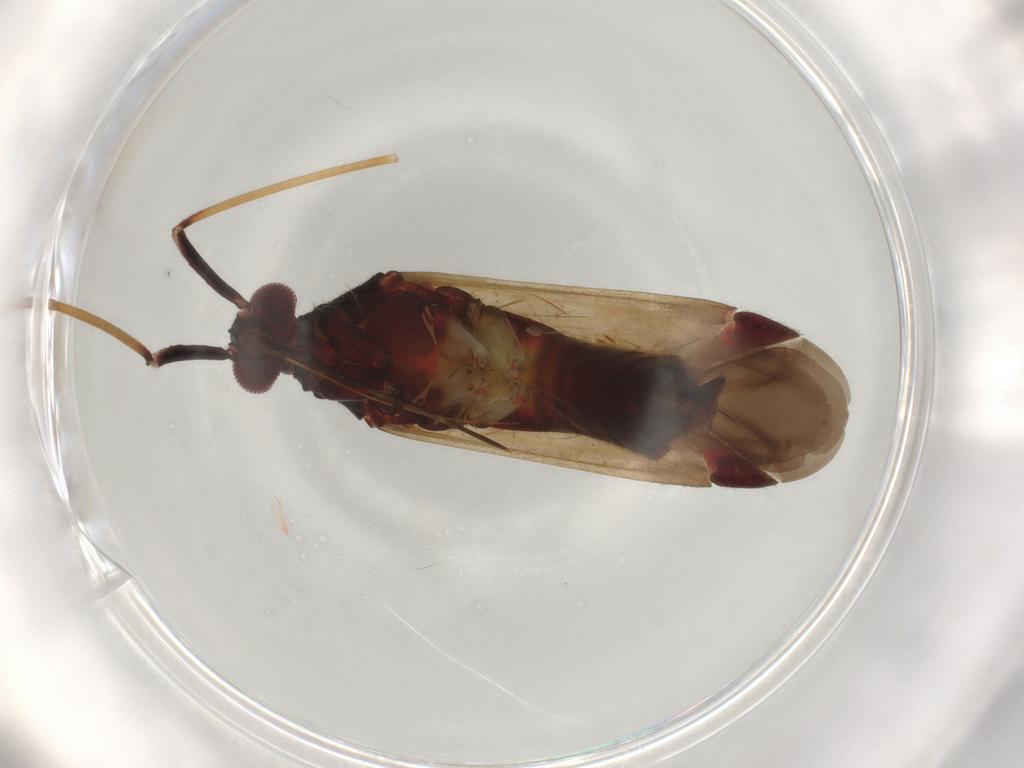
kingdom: Animalia
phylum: Arthropoda
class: Insecta
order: Hemiptera
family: Miridae
